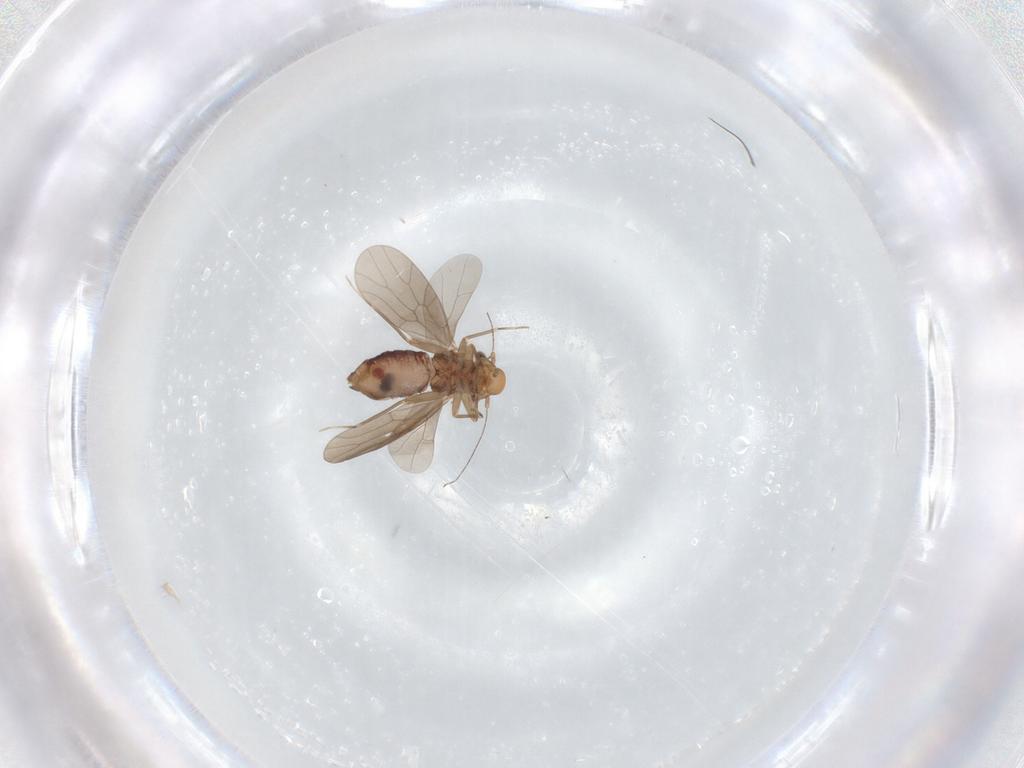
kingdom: Animalia
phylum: Arthropoda
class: Insecta
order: Psocodea
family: Lepidopsocidae
